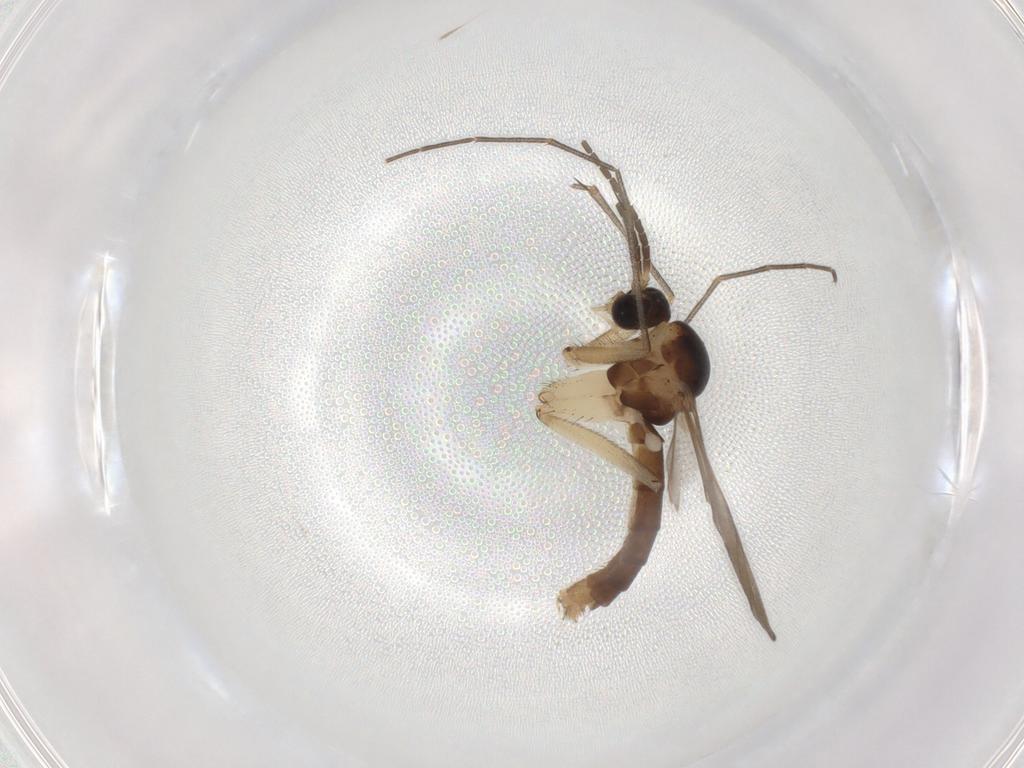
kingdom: Animalia
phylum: Arthropoda
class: Insecta
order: Diptera
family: Mycetophilidae
